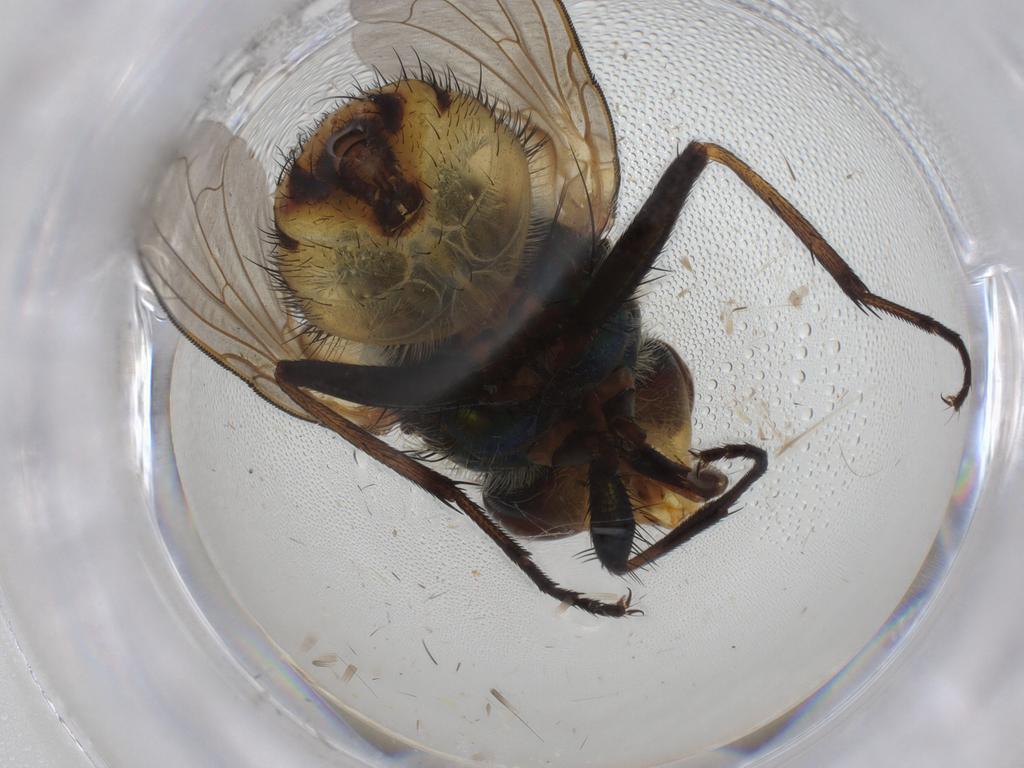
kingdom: Animalia
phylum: Arthropoda
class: Insecta
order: Diptera
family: Calliphoridae
